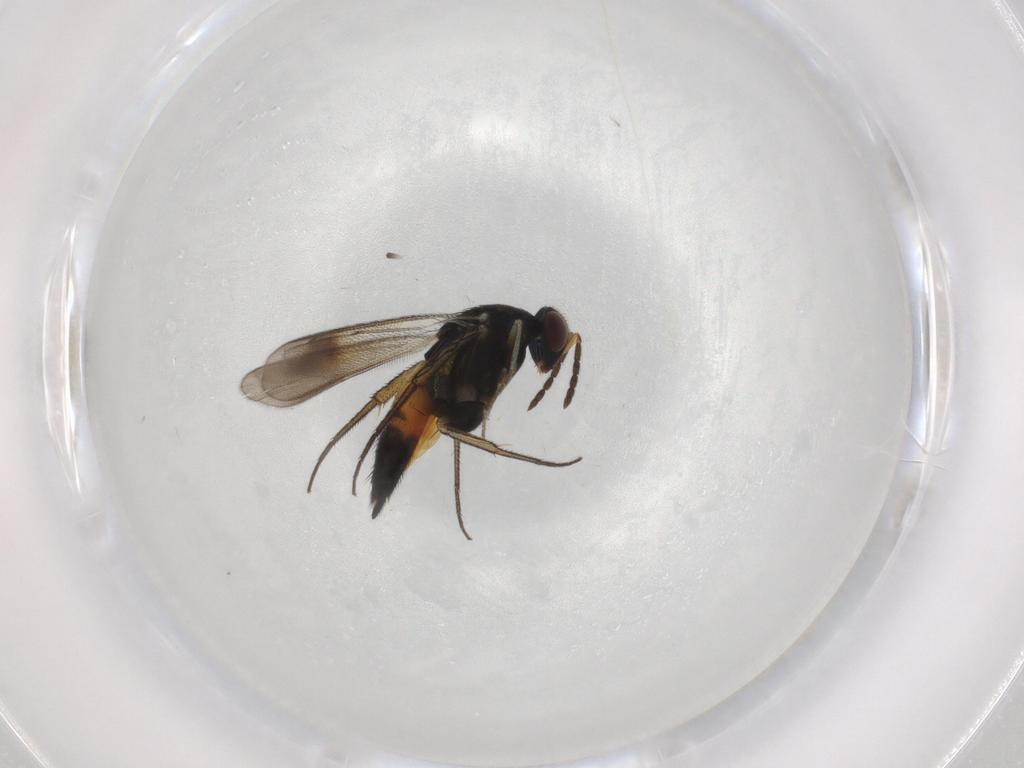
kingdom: Animalia
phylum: Arthropoda
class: Insecta
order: Hymenoptera
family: Eulophidae
